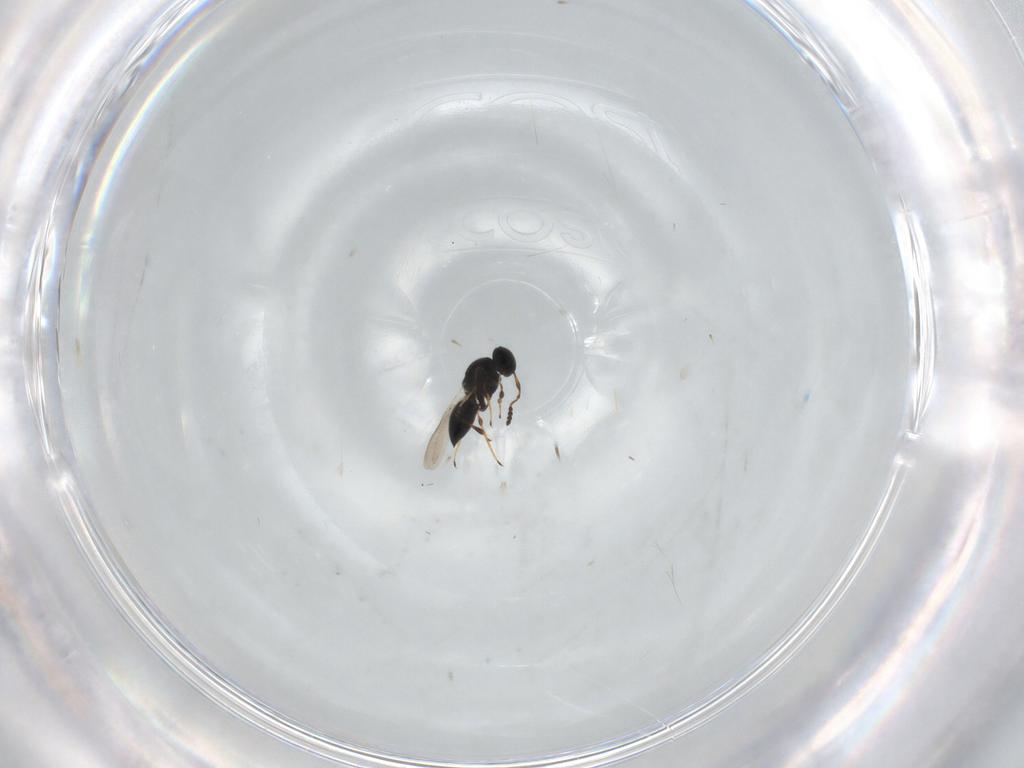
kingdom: Animalia
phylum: Arthropoda
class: Insecta
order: Hymenoptera
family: Platygastridae
